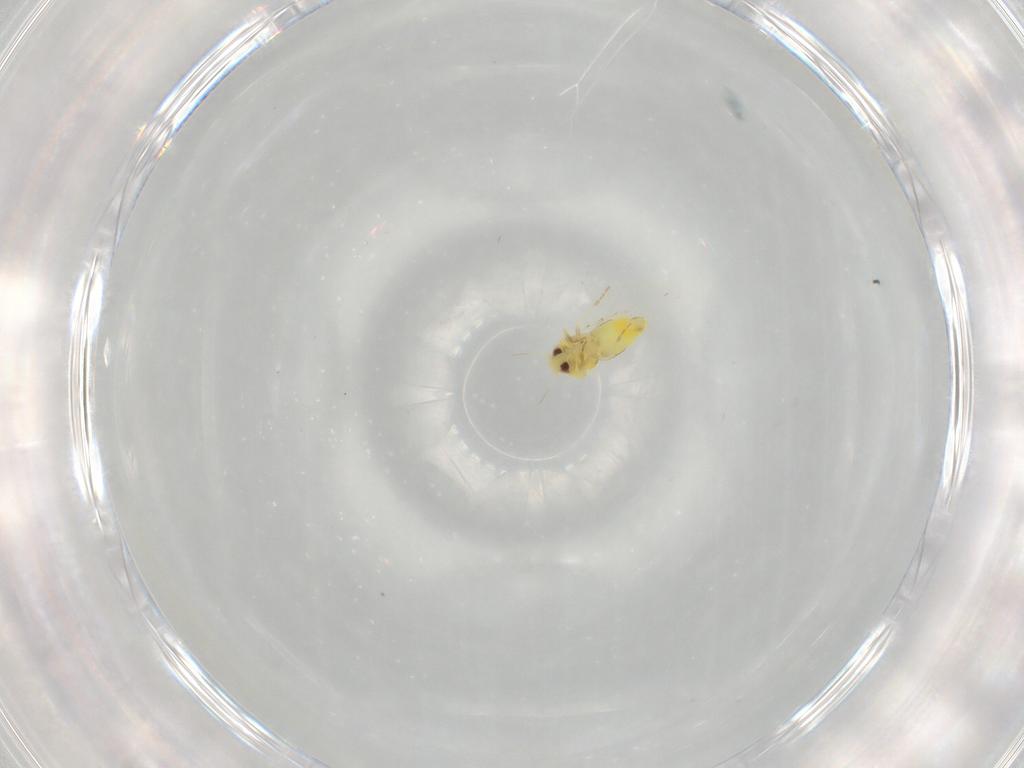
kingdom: Animalia
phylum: Arthropoda
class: Insecta
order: Hemiptera
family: Aleyrodidae
